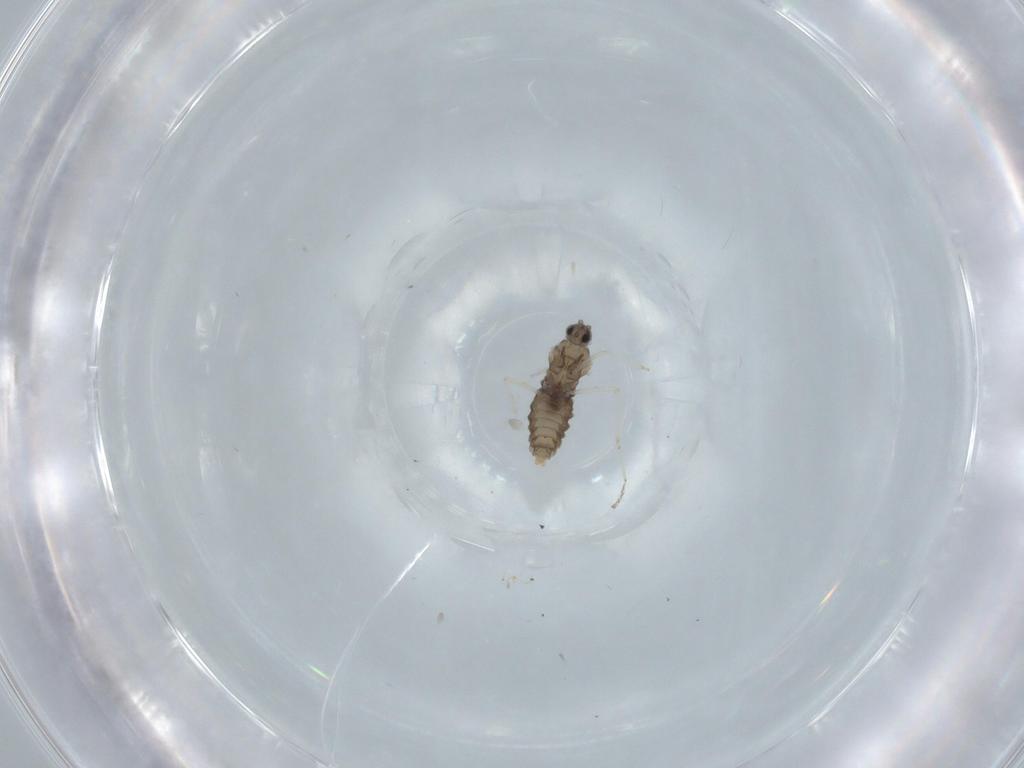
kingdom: Animalia
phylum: Arthropoda
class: Insecta
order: Diptera
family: Cecidomyiidae
